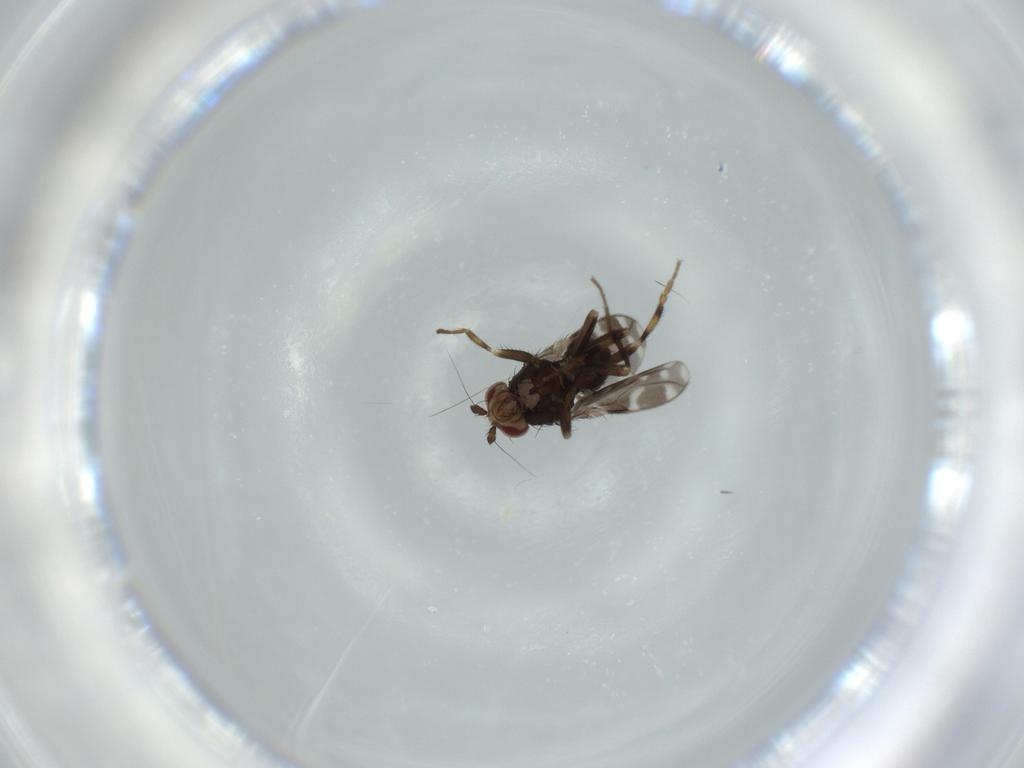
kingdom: Animalia
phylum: Arthropoda
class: Insecta
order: Diptera
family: Sphaeroceridae
